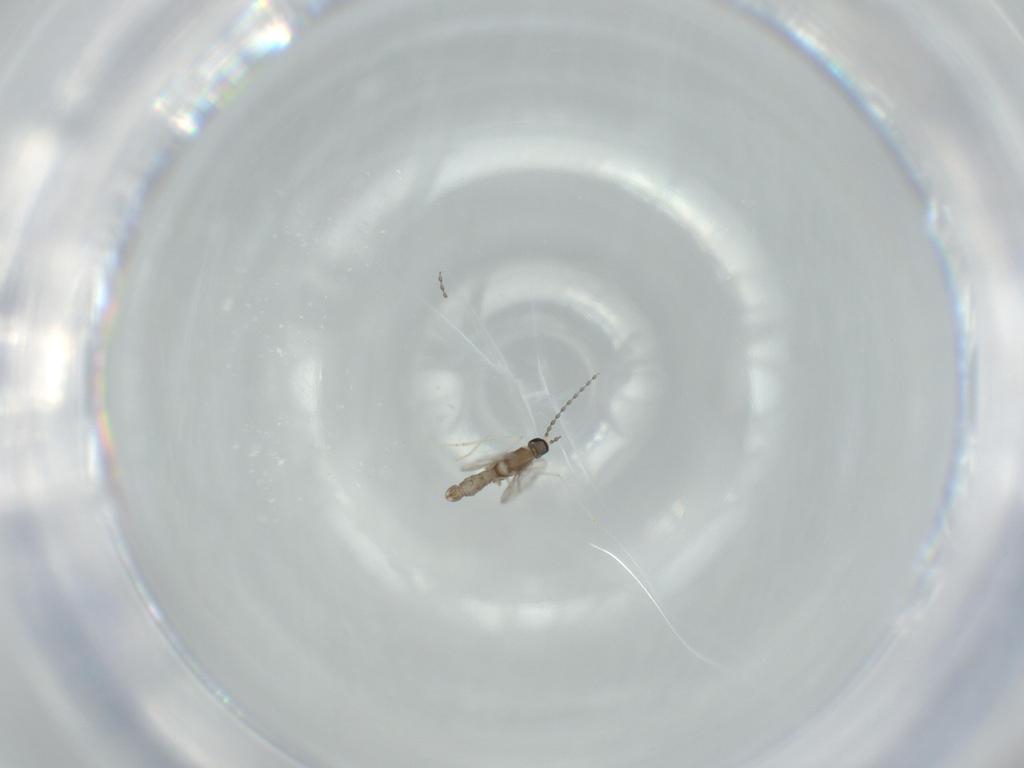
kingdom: Animalia
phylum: Arthropoda
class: Insecta
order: Diptera
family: Cecidomyiidae
